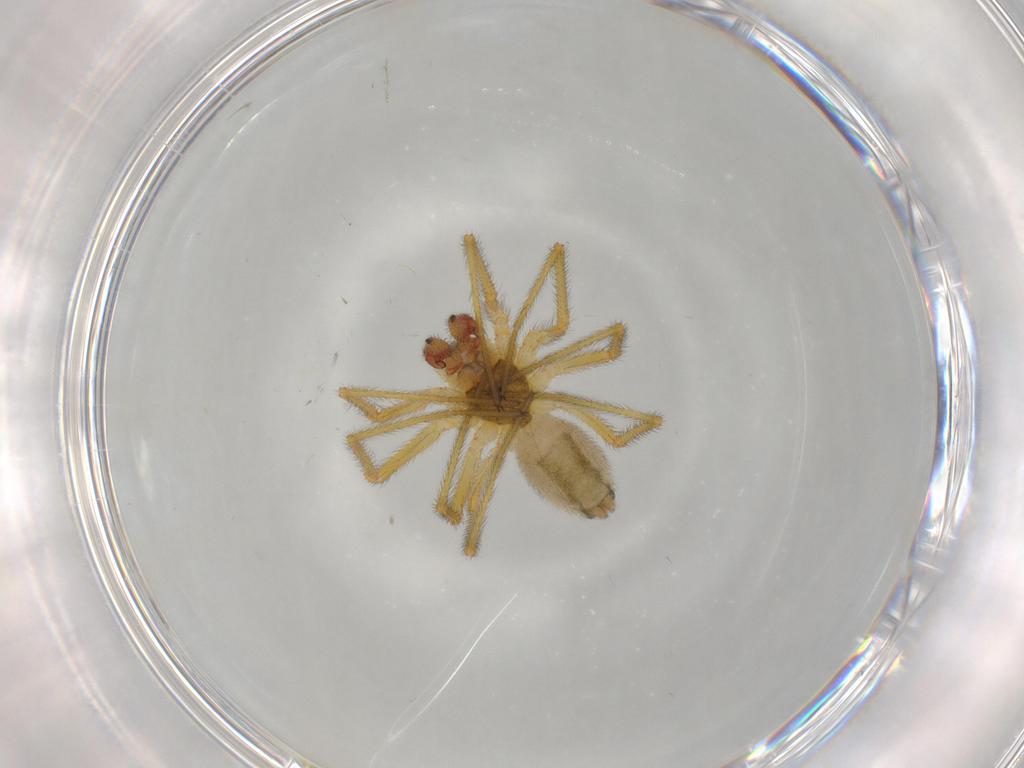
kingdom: Animalia
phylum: Arthropoda
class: Arachnida
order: Araneae
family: Linyphiidae
